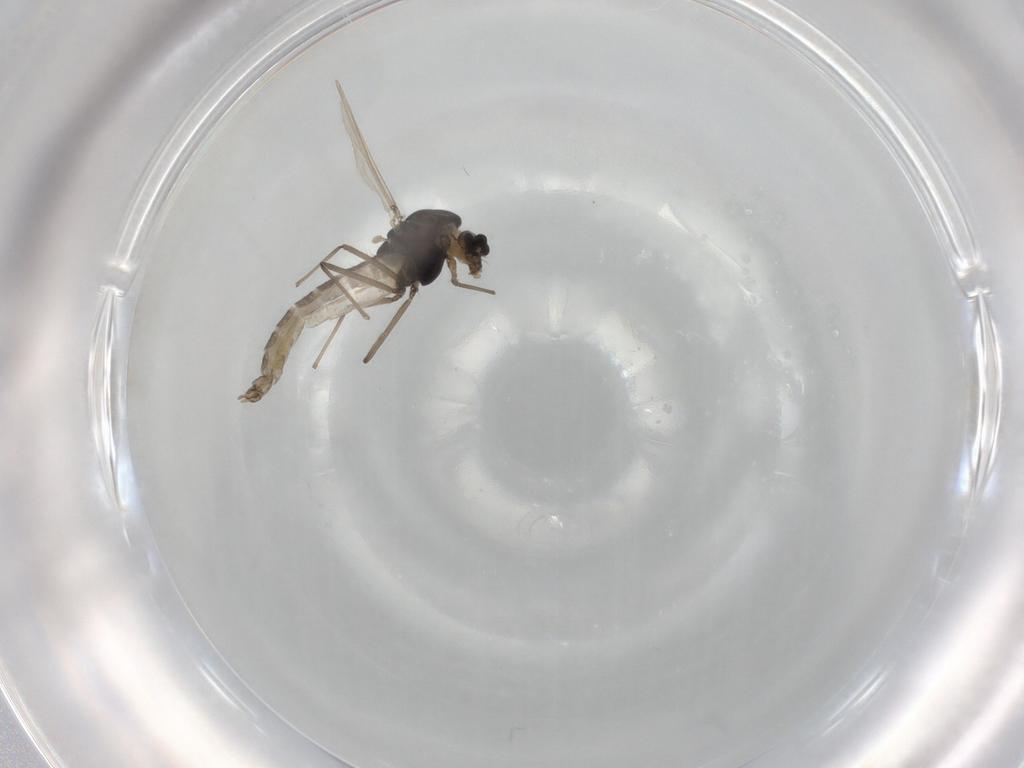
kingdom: Animalia
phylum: Arthropoda
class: Insecta
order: Diptera
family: Chironomidae
